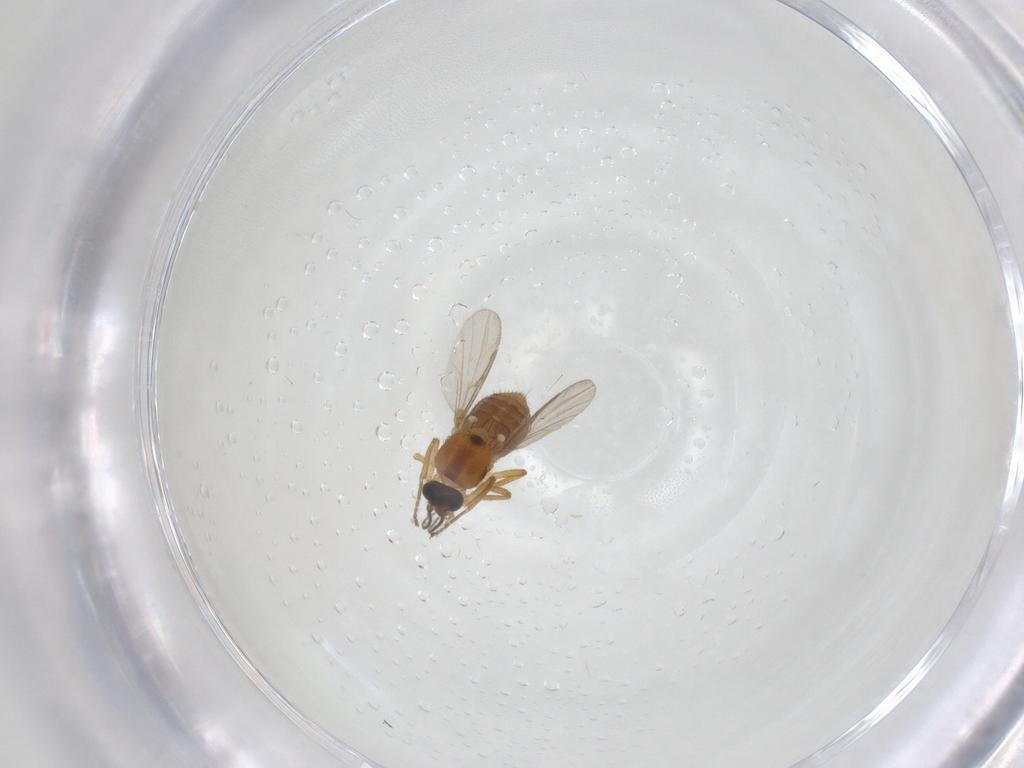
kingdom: Animalia
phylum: Arthropoda
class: Insecta
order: Diptera
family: Ceratopogonidae
